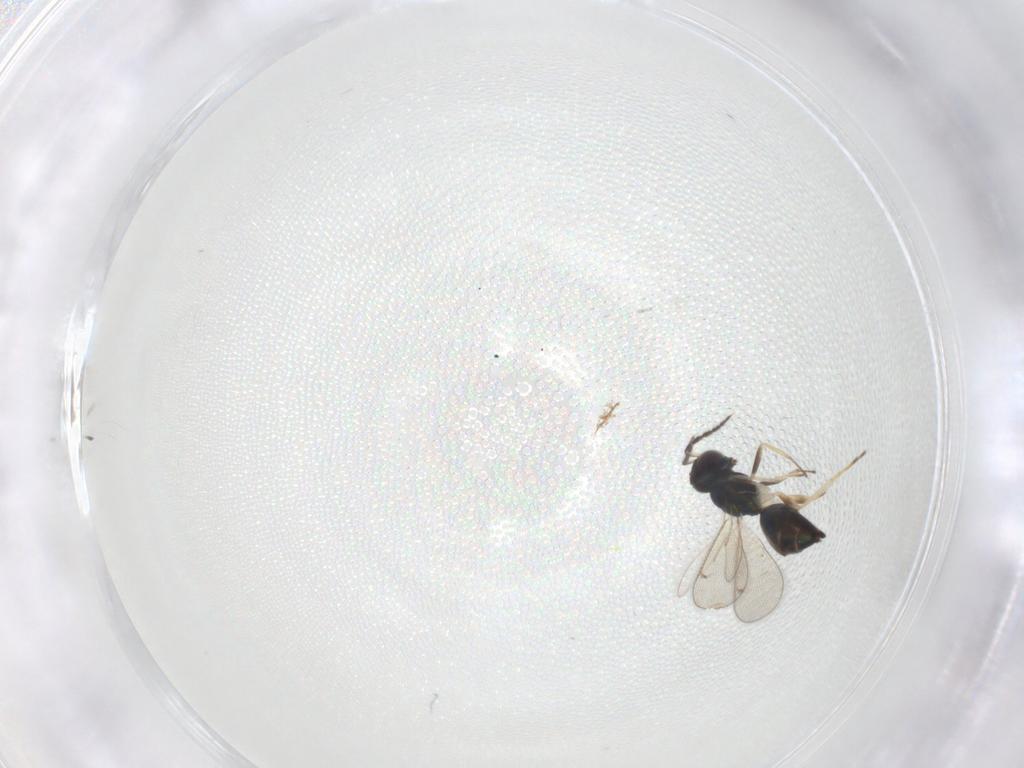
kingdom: Animalia
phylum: Arthropoda
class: Insecta
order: Hymenoptera
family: Eulophidae
